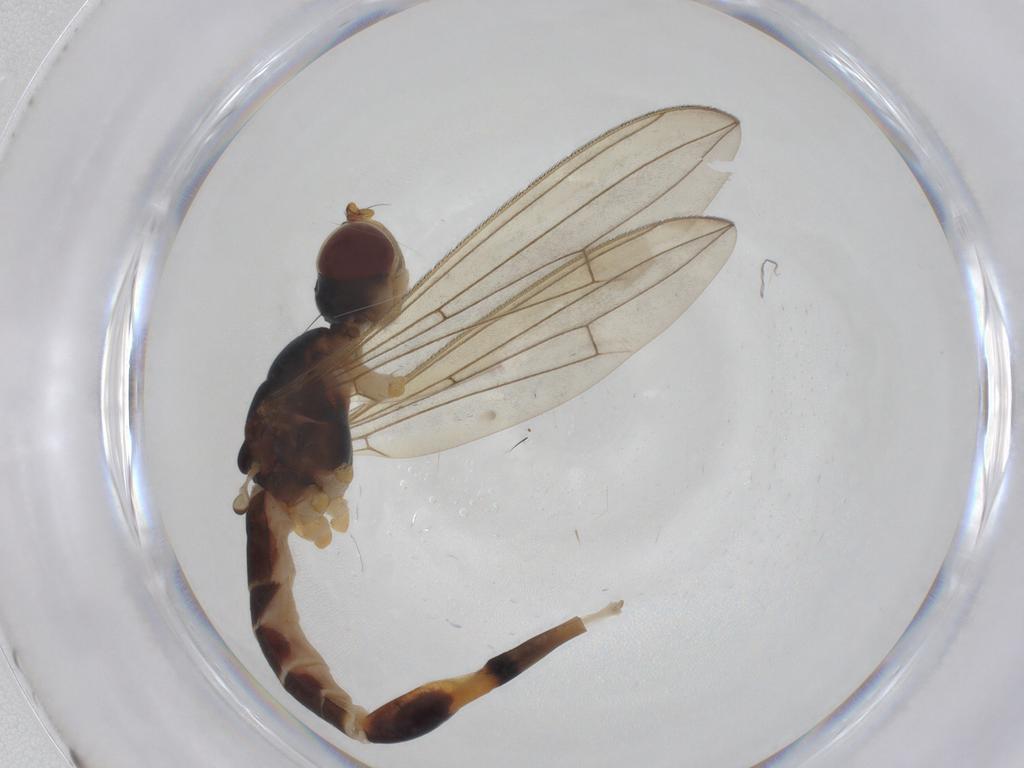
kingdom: Animalia
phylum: Arthropoda
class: Insecta
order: Diptera
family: Micropezidae
